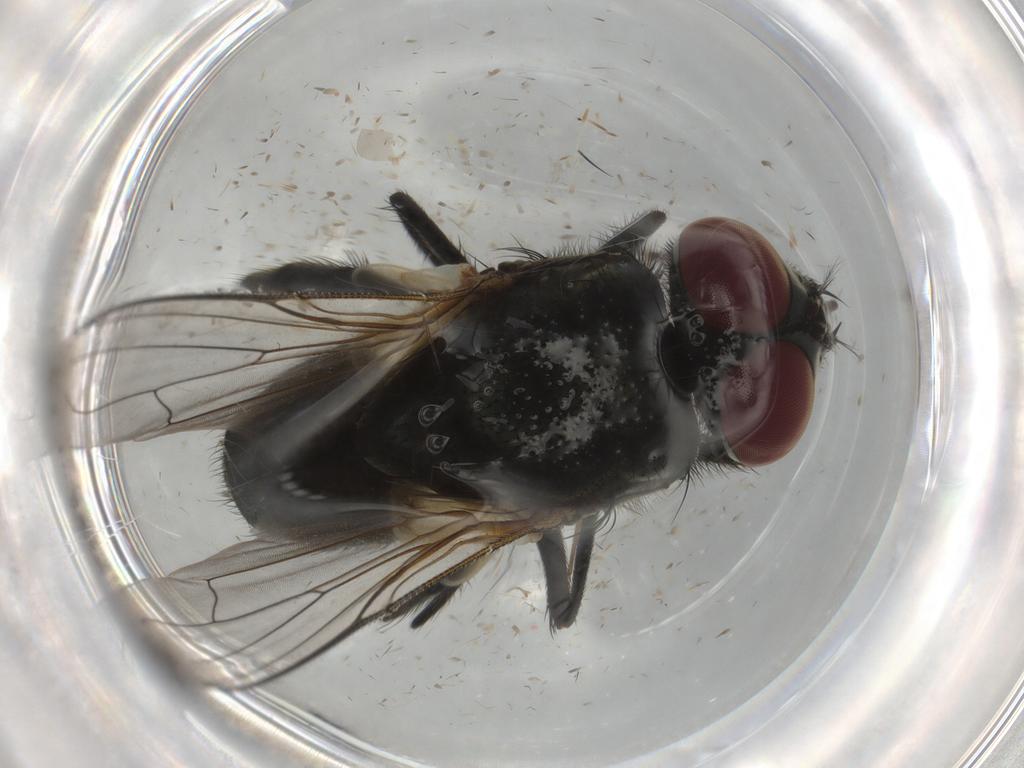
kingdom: Animalia
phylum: Arthropoda
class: Insecta
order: Diptera
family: Muscidae
